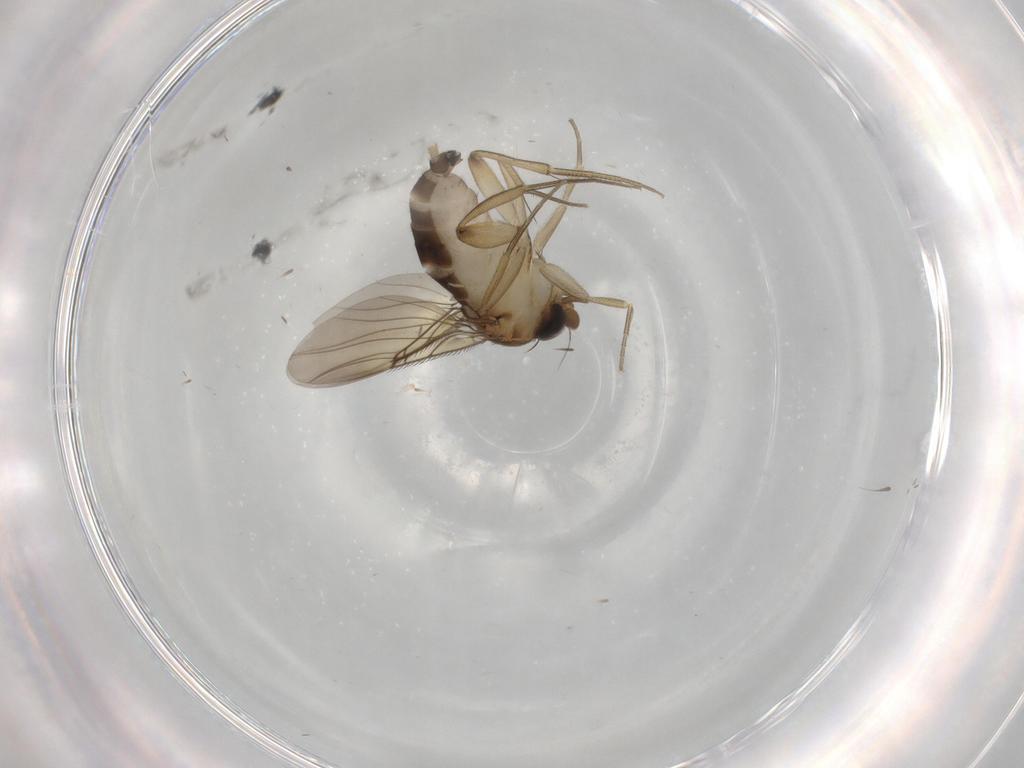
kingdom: Animalia
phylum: Arthropoda
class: Insecta
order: Diptera
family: Phoridae
